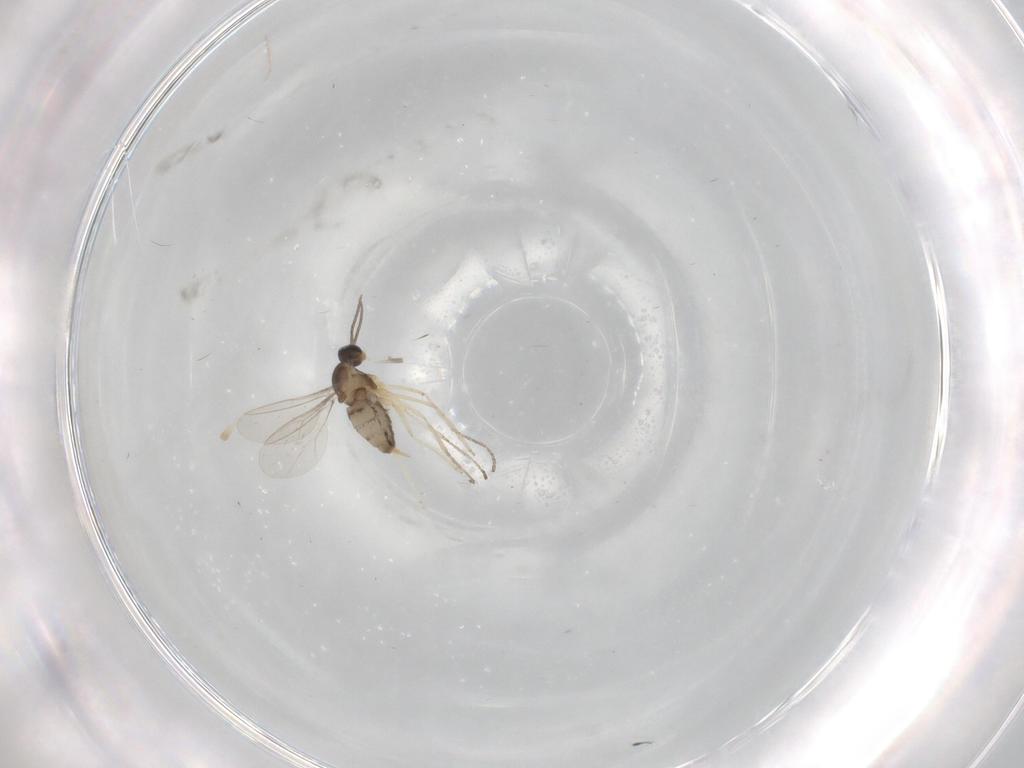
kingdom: Animalia
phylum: Arthropoda
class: Insecta
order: Diptera
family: Cecidomyiidae
